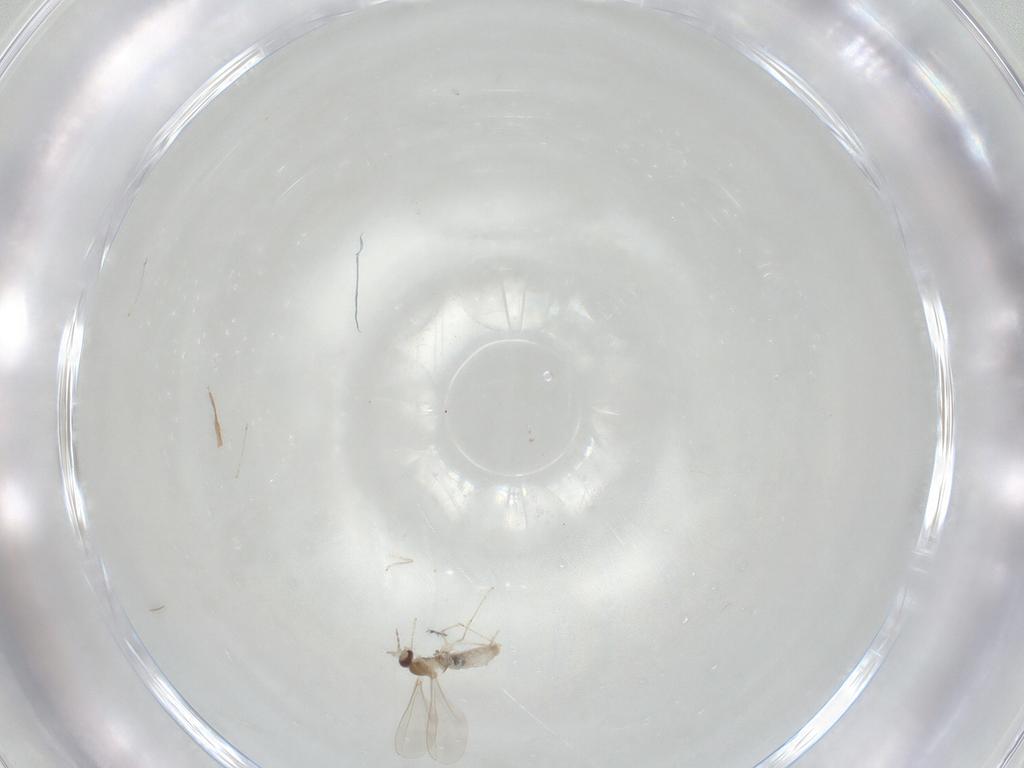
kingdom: Animalia
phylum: Arthropoda
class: Insecta
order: Diptera
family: Cecidomyiidae
